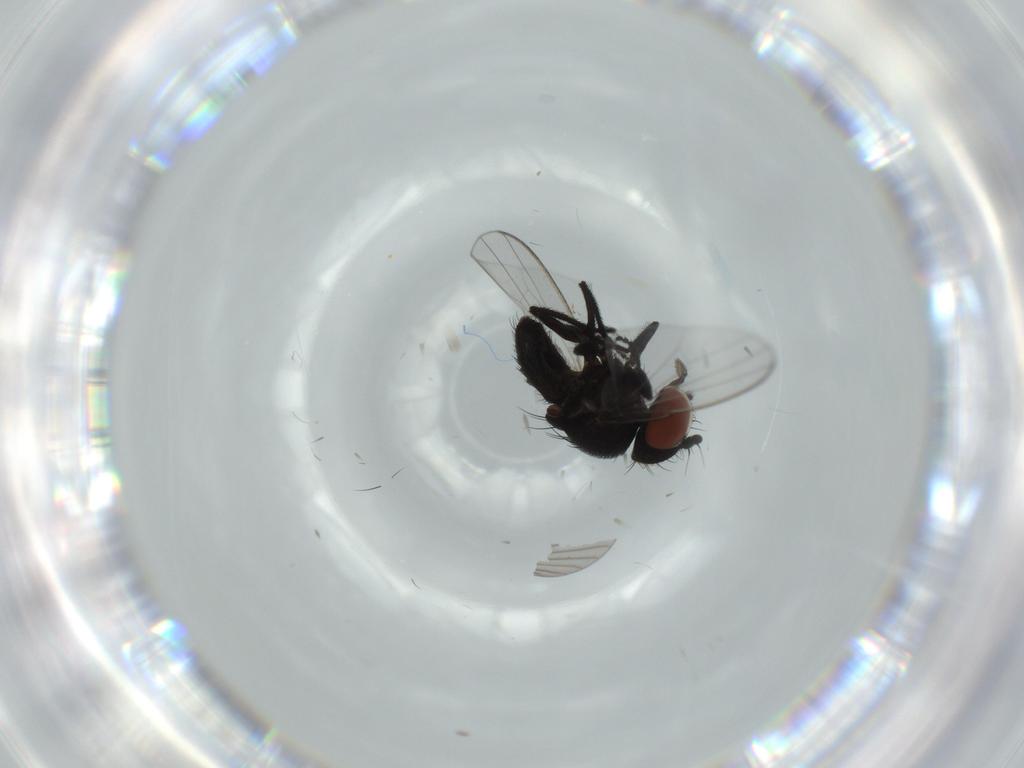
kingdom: Animalia
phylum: Arthropoda
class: Insecta
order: Diptera
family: Milichiidae
